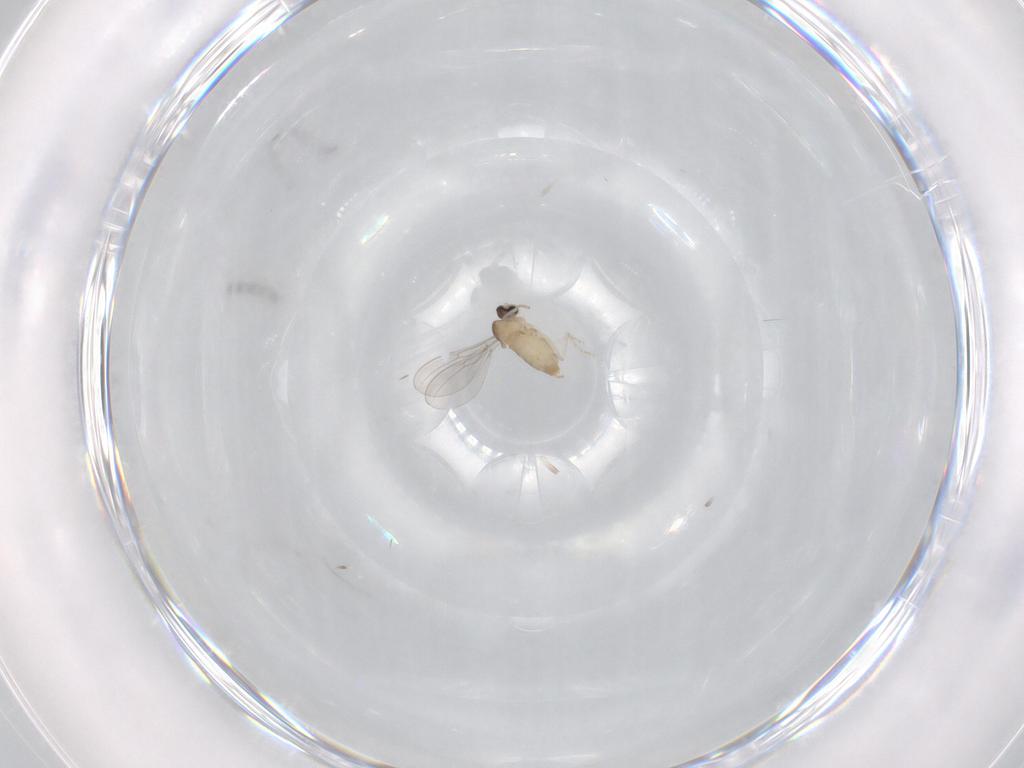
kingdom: Animalia
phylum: Arthropoda
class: Insecta
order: Diptera
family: Cecidomyiidae
